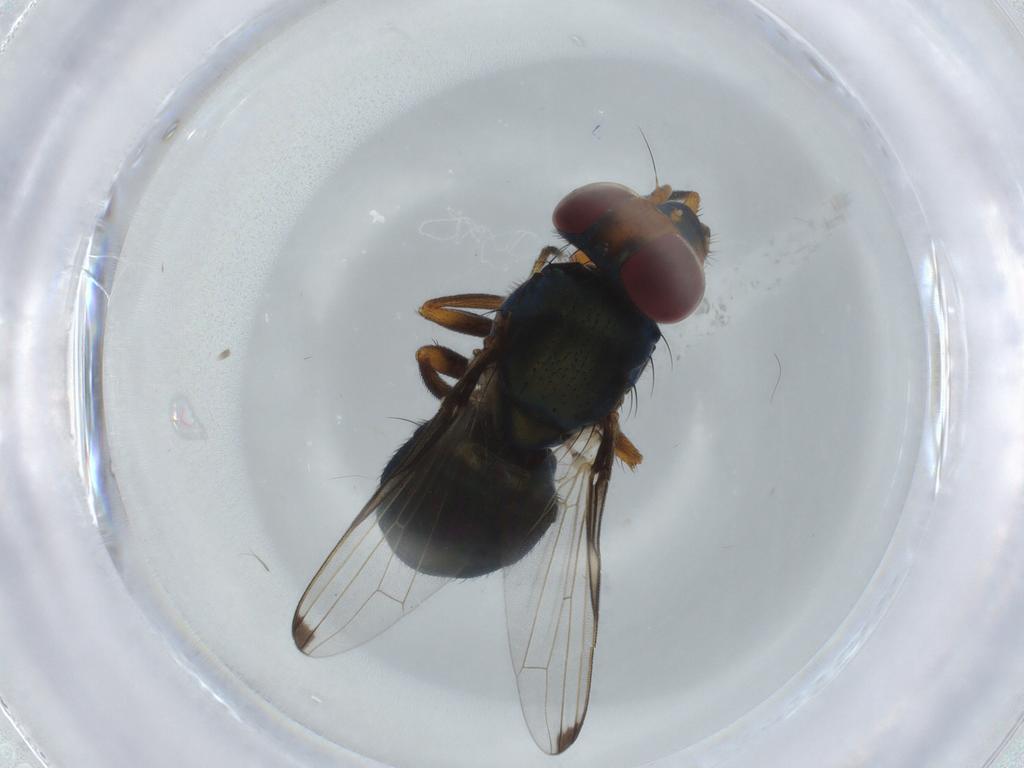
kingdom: Animalia
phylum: Arthropoda
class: Insecta
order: Diptera
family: Ulidiidae
